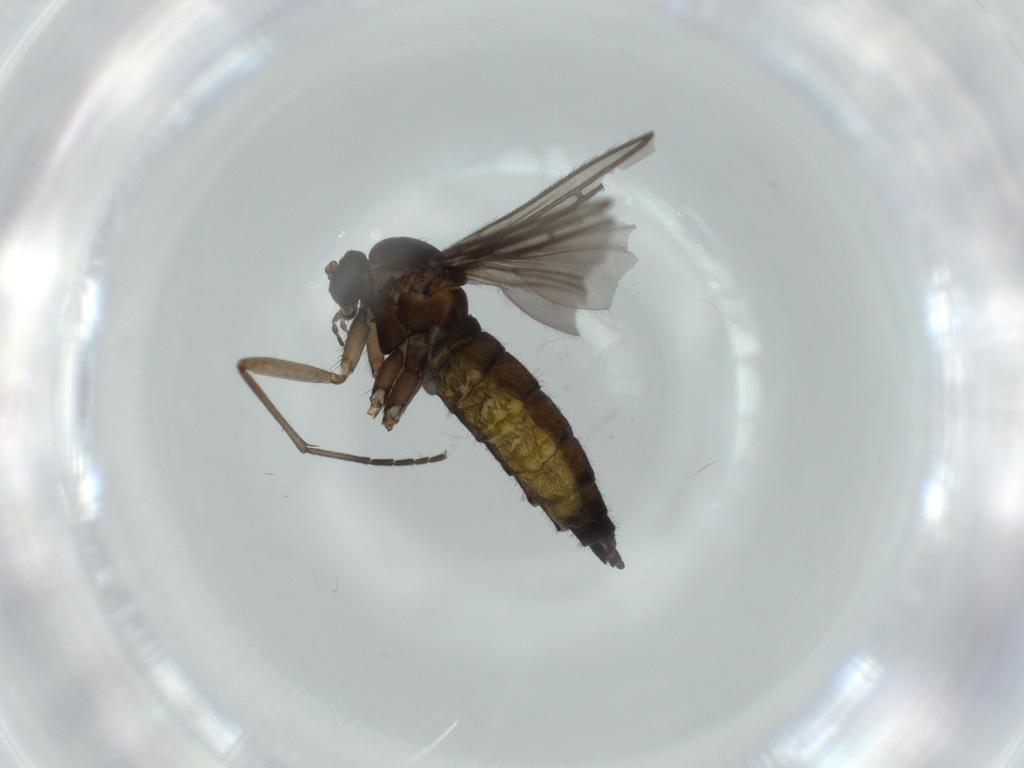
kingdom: Animalia
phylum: Arthropoda
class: Insecta
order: Diptera
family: Sciaridae
